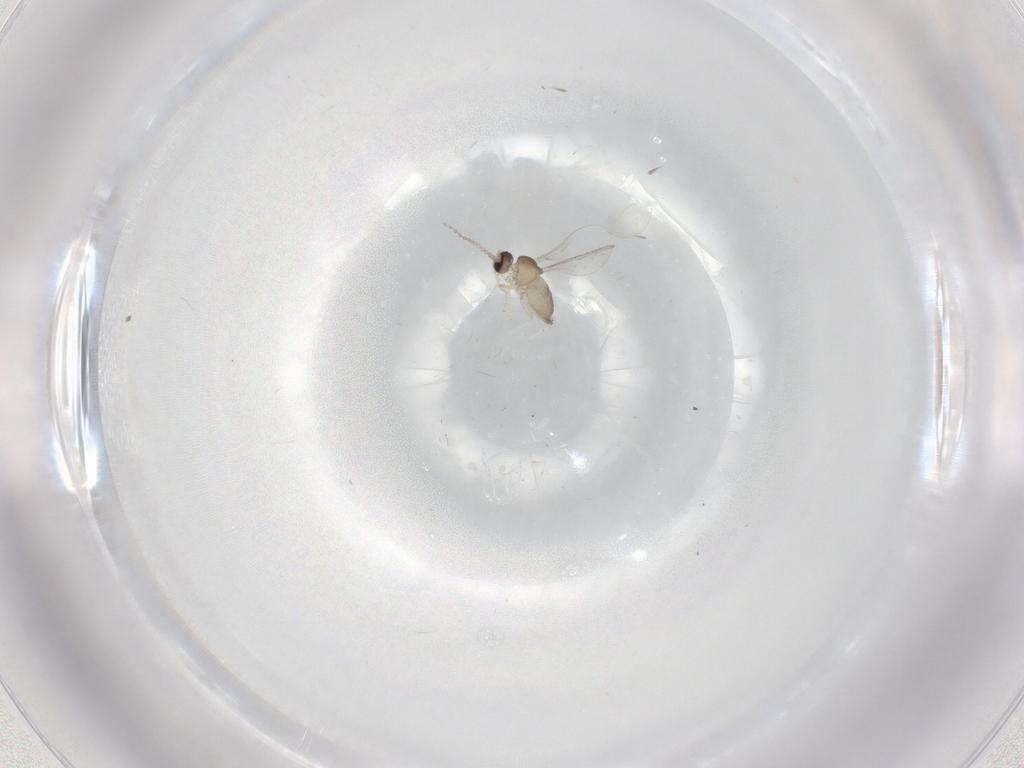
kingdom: Animalia
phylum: Arthropoda
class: Insecta
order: Diptera
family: Cecidomyiidae
